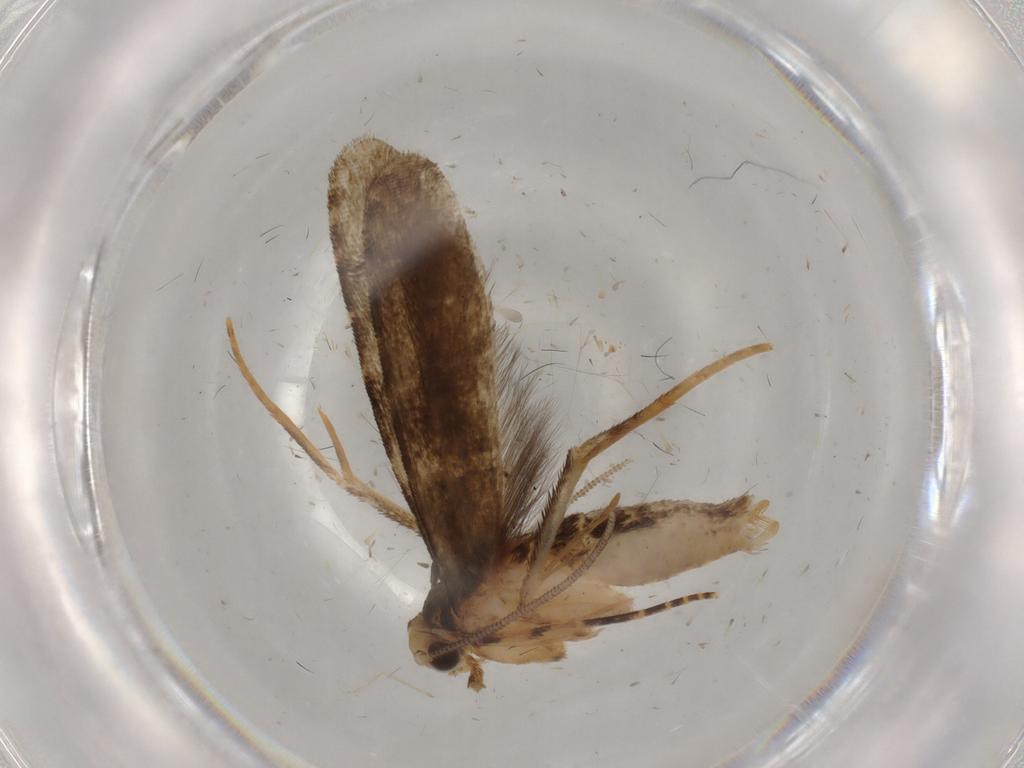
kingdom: Animalia
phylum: Arthropoda
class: Insecta
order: Lepidoptera
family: Tineidae
